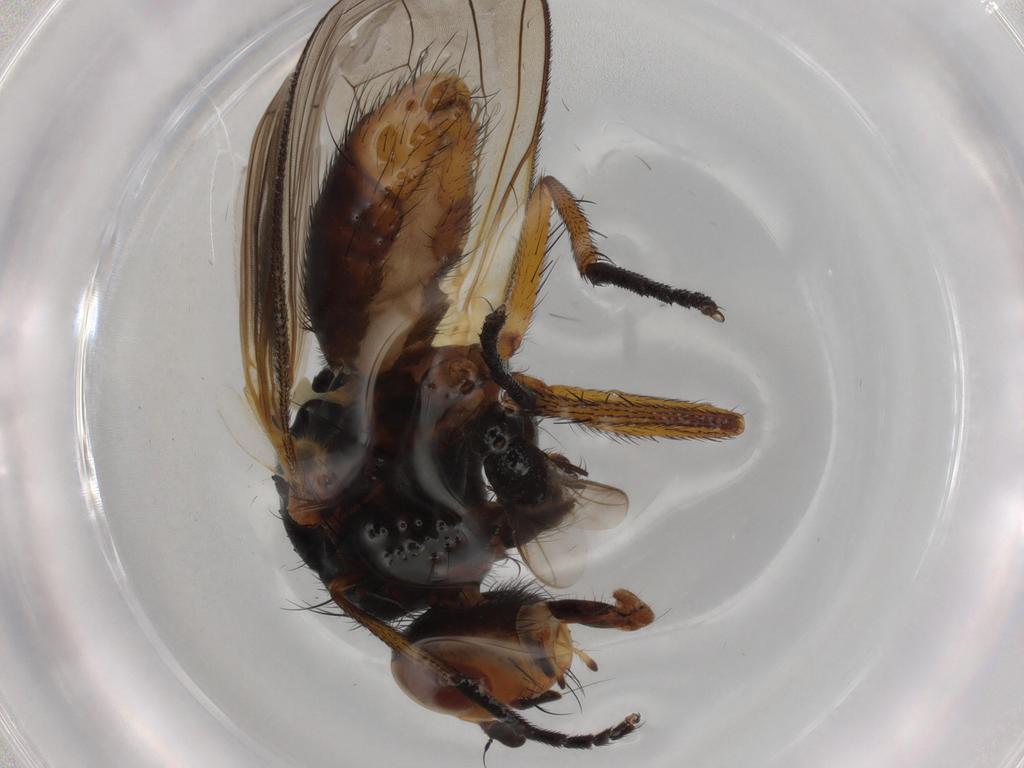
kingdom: Animalia
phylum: Arthropoda
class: Insecta
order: Diptera
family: Anthomyiidae
